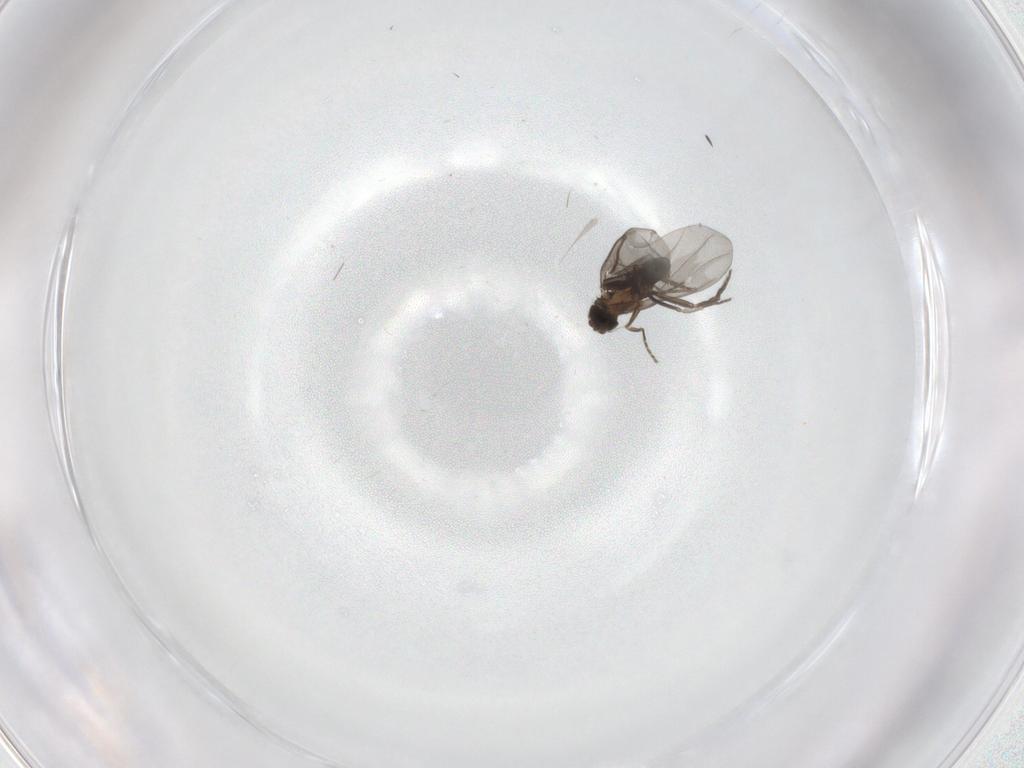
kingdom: Animalia
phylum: Arthropoda
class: Insecta
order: Diptera
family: Phoridae
